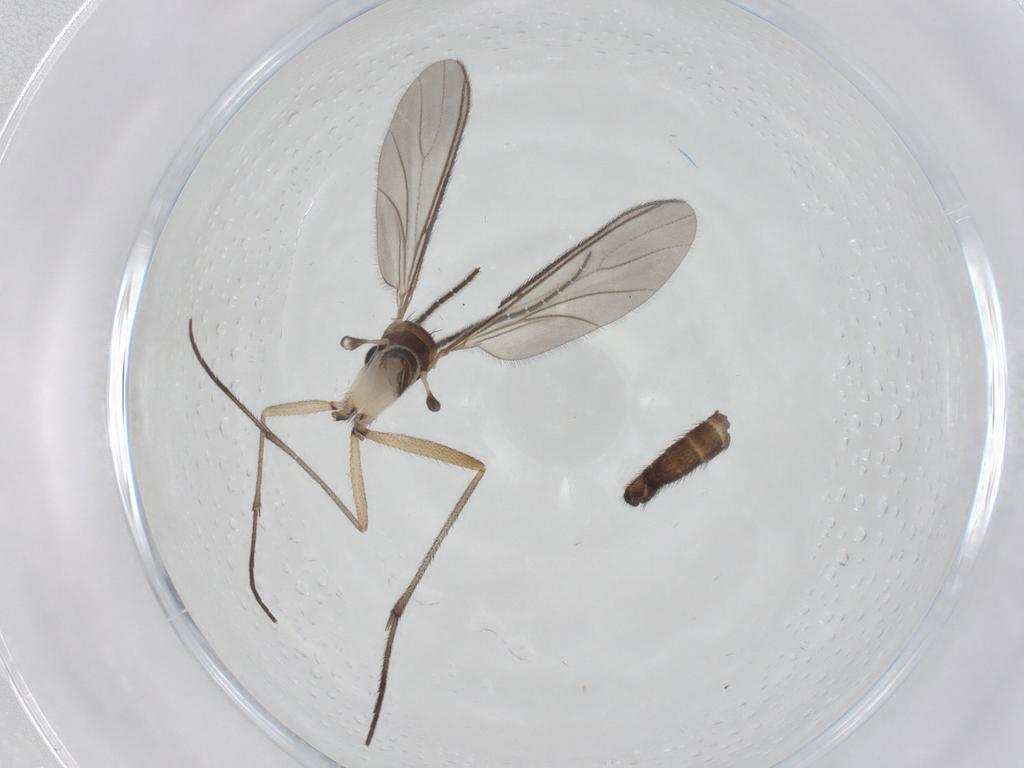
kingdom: Animalia
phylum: Arthropoda
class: Insecta
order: Diptera
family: Sciaridae
